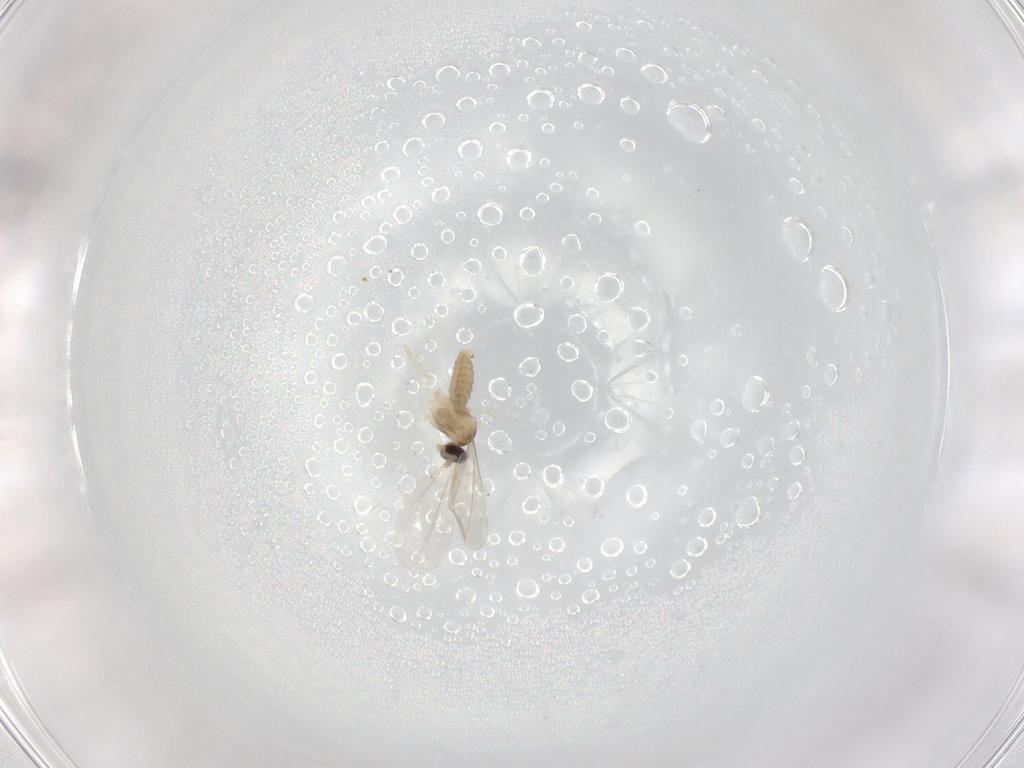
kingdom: Animalia
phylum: Arthropoda
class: Insecta
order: Diptera
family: Ceratopogonidae
